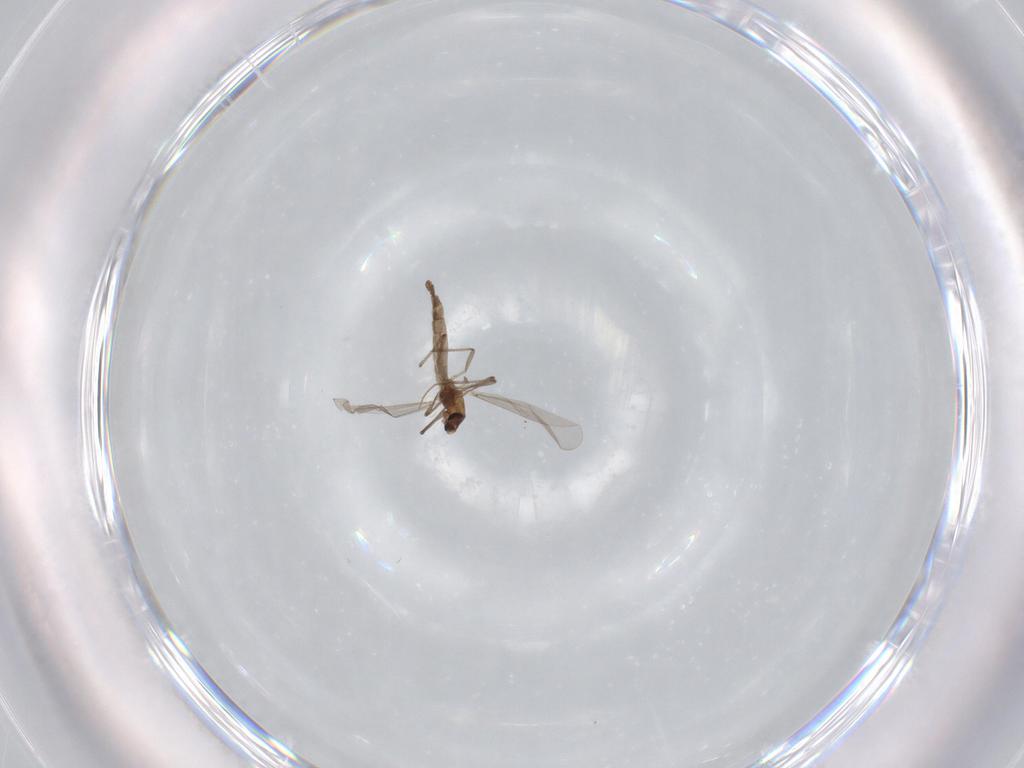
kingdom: Animalia
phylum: Arthropoda
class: Insecta
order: Diptera
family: Chironomidae
